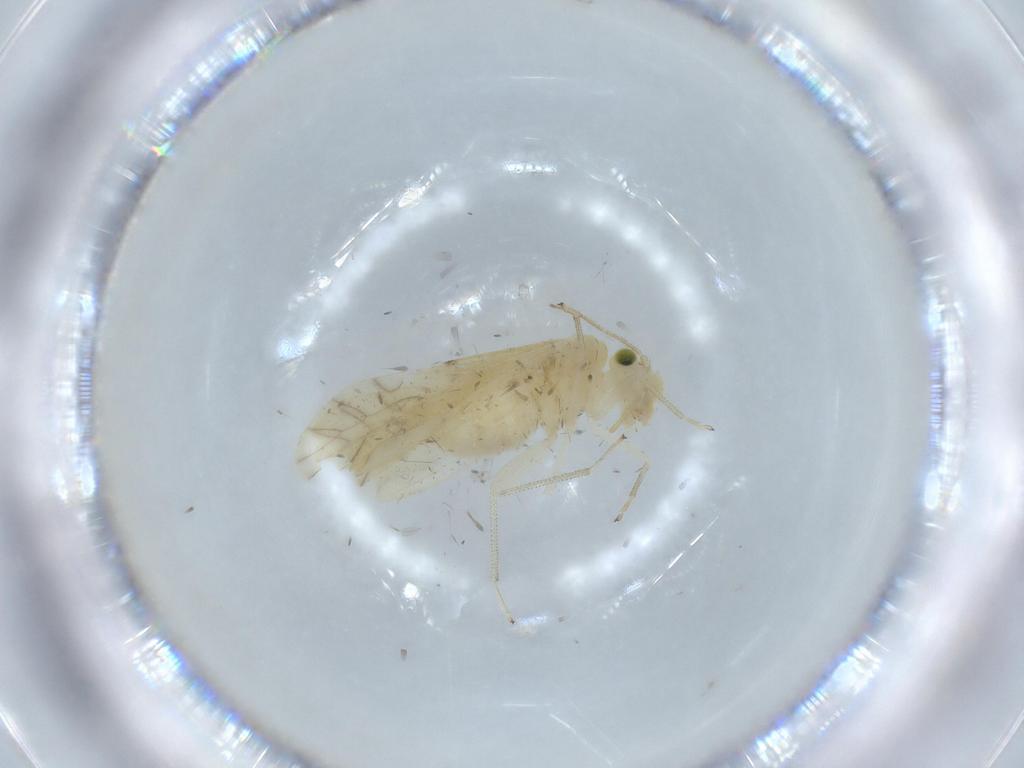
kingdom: Animalia
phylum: Arthropoda
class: Insecta
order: Psocodea
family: Caeciliusidae
